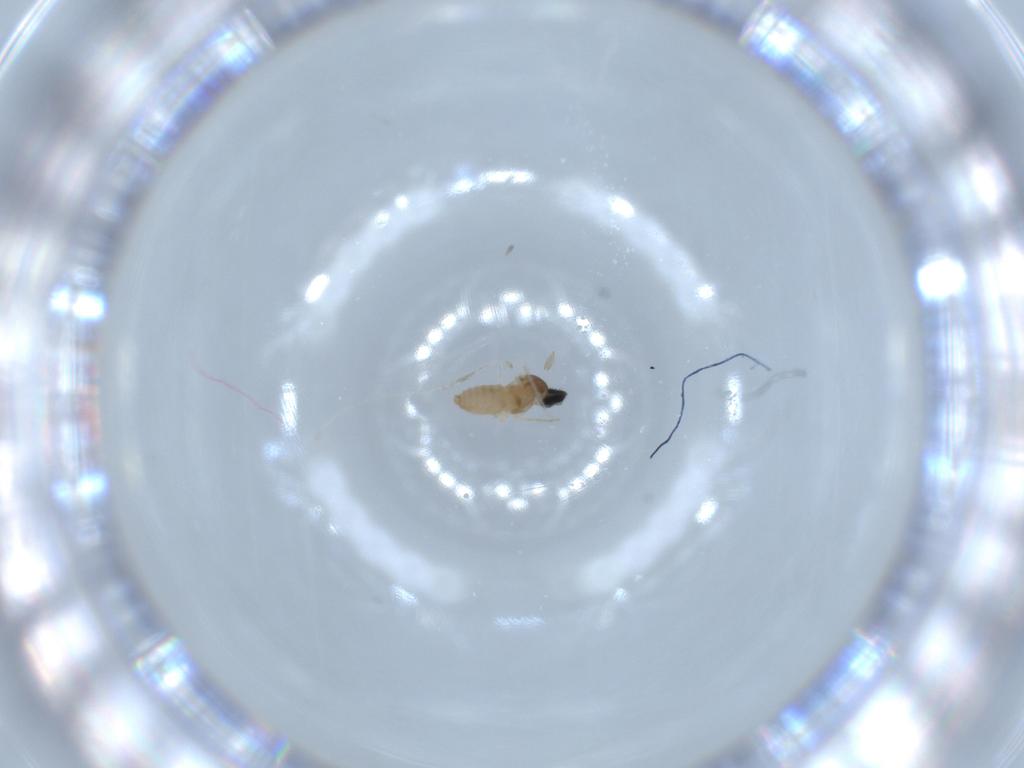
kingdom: Animalia
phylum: Arthropoda
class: Insecta
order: Diptera
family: Cecidomyiidae
